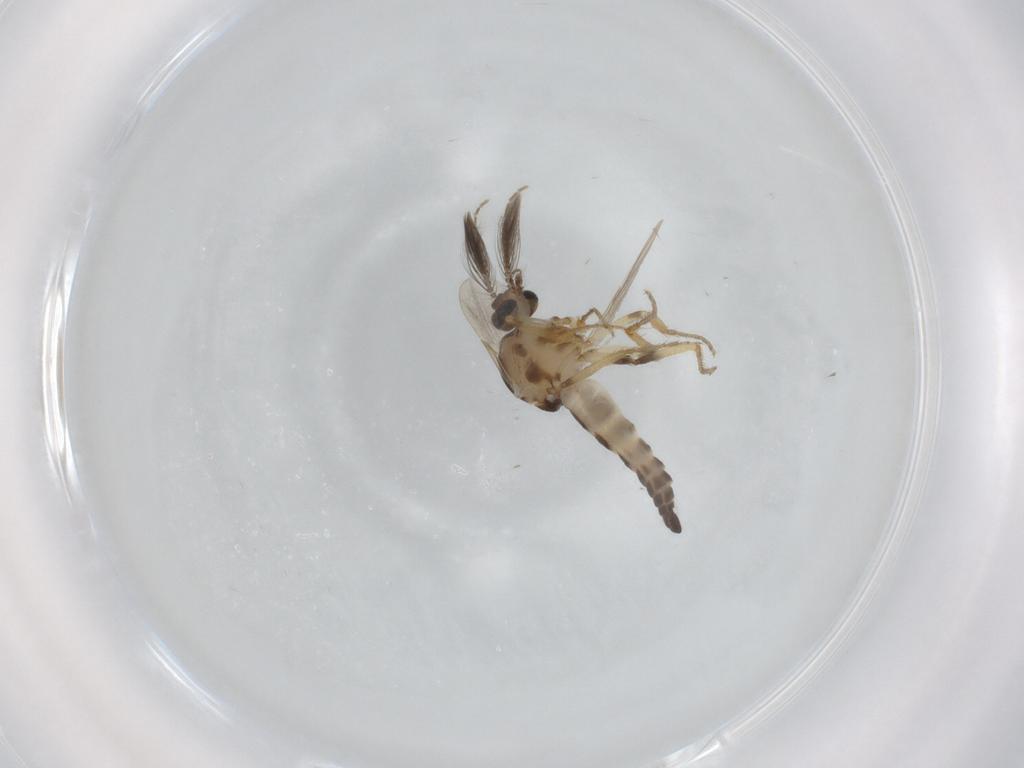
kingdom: Animalia
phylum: Arthropoda
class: Insecta
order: Diptera
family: Ceratopogonidae
